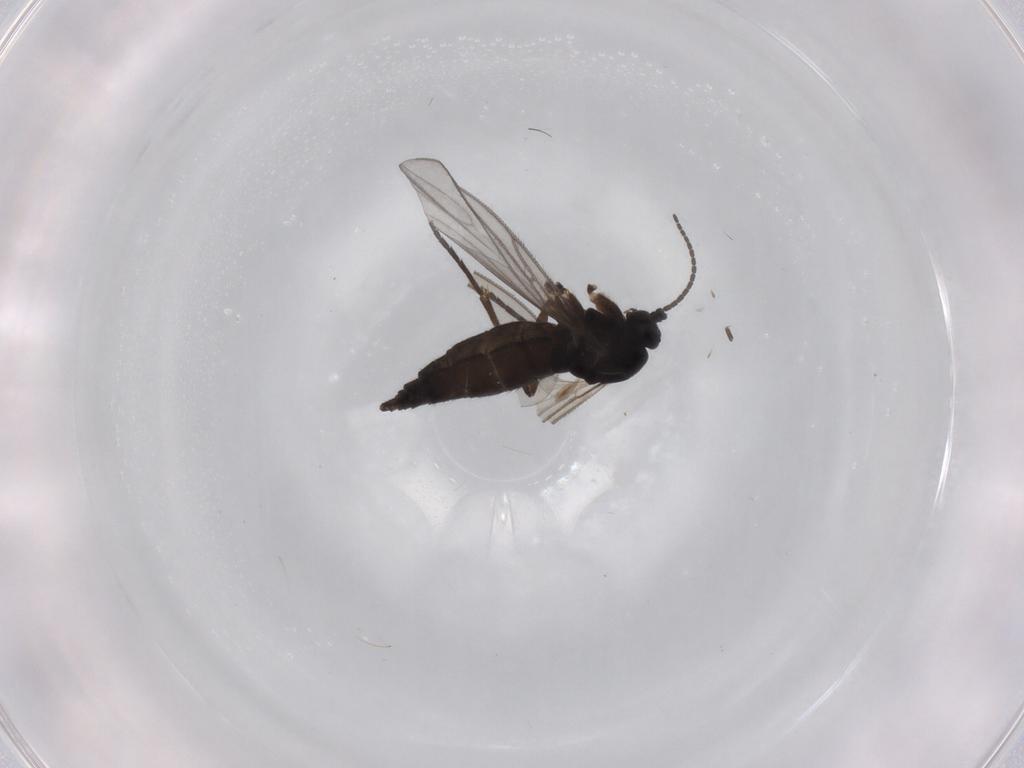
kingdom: Animalia
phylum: Arthropoda
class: Insecta
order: Diptera
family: Sciaridae
